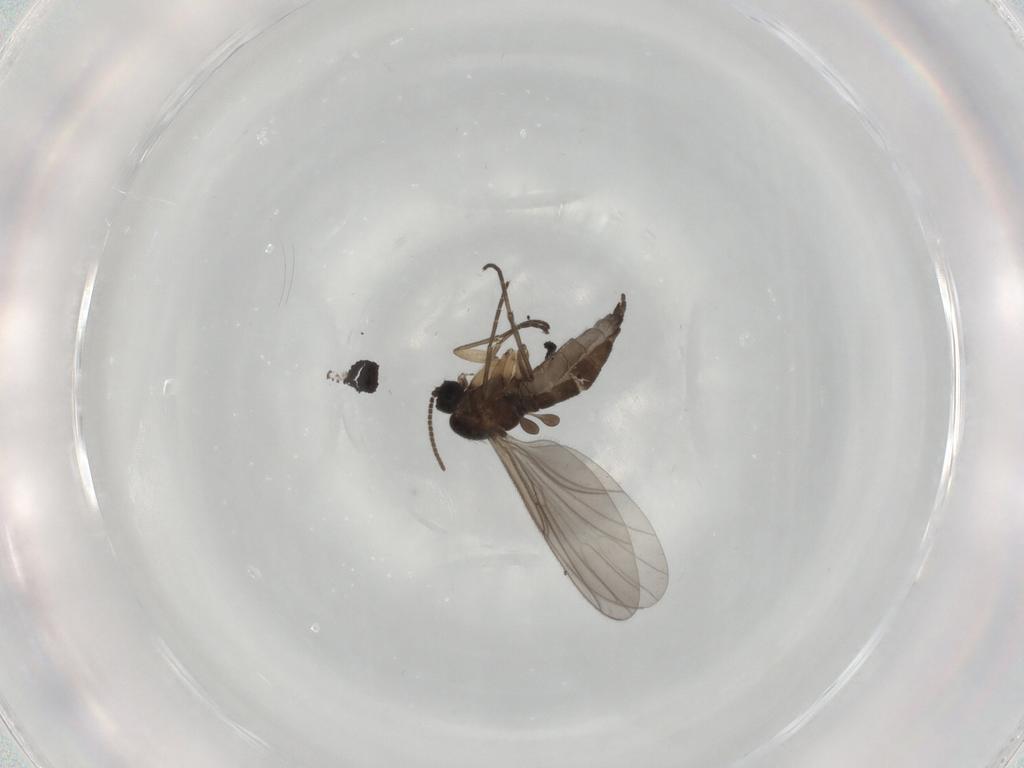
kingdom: Animalia
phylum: Arthropoda
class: Insecta
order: Diptera
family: Sciaridae
